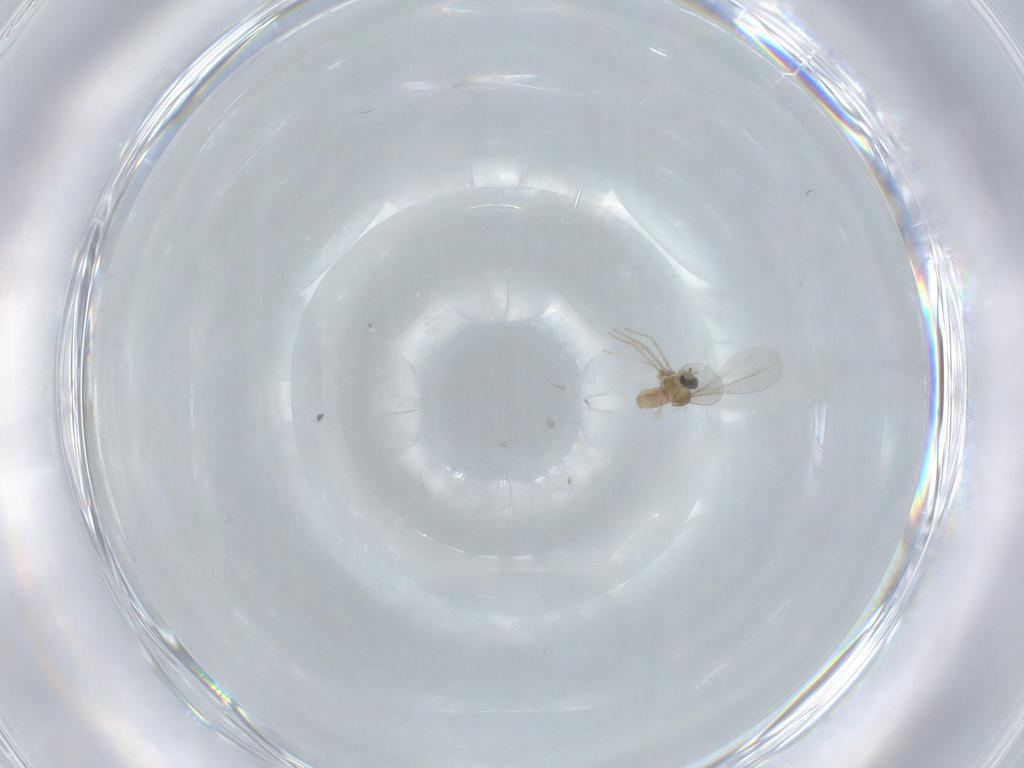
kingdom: Animalia
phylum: Arthropoda
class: Insecta
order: Diptera
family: Cecidomyiidae
